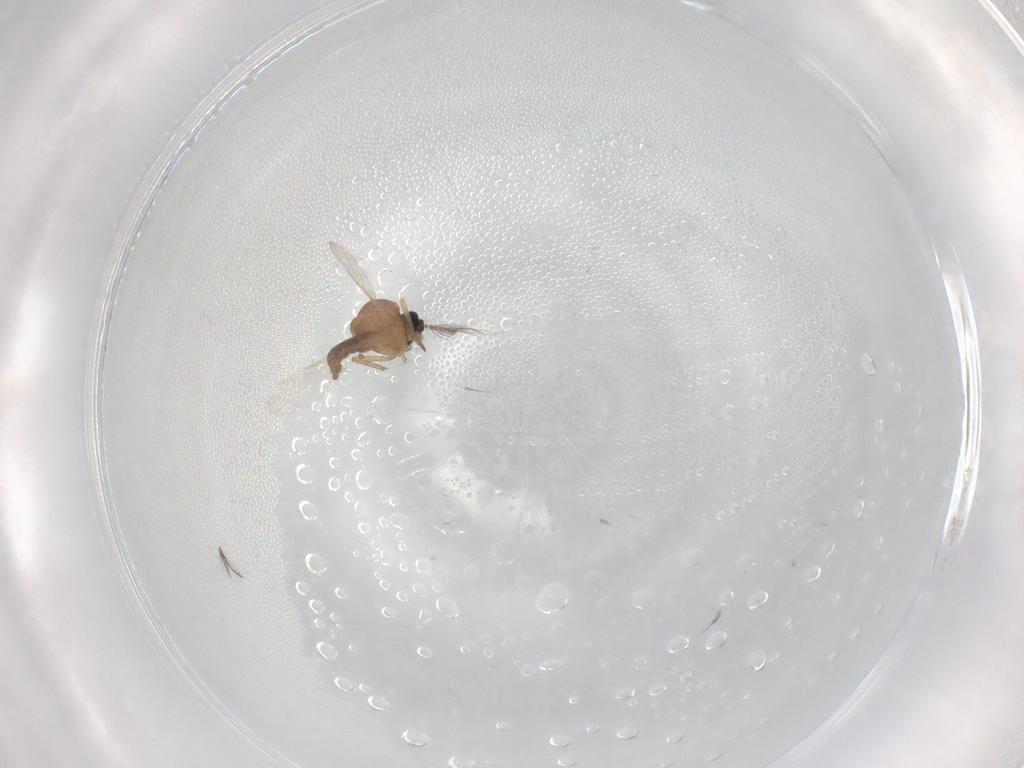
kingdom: Animalia
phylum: Arthropoda
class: Insecta
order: Diptera
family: Ceratopogonidae
